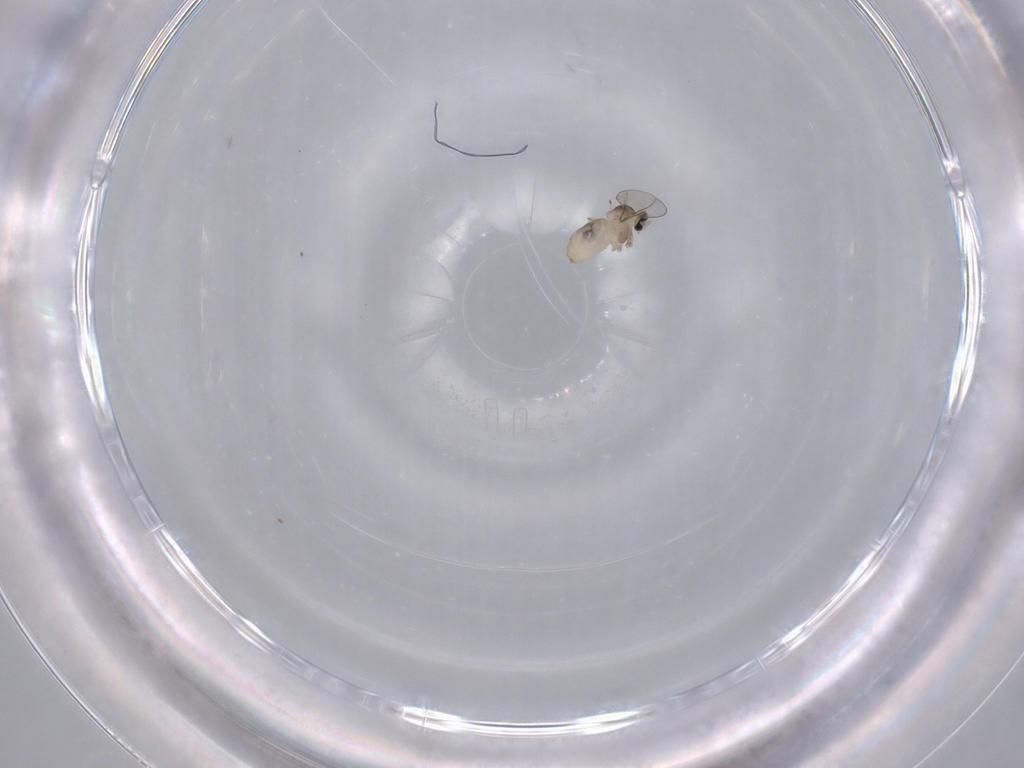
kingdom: Animalia
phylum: Arthropoda
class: Insecta
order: Diptera
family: Cecidomyiidae
